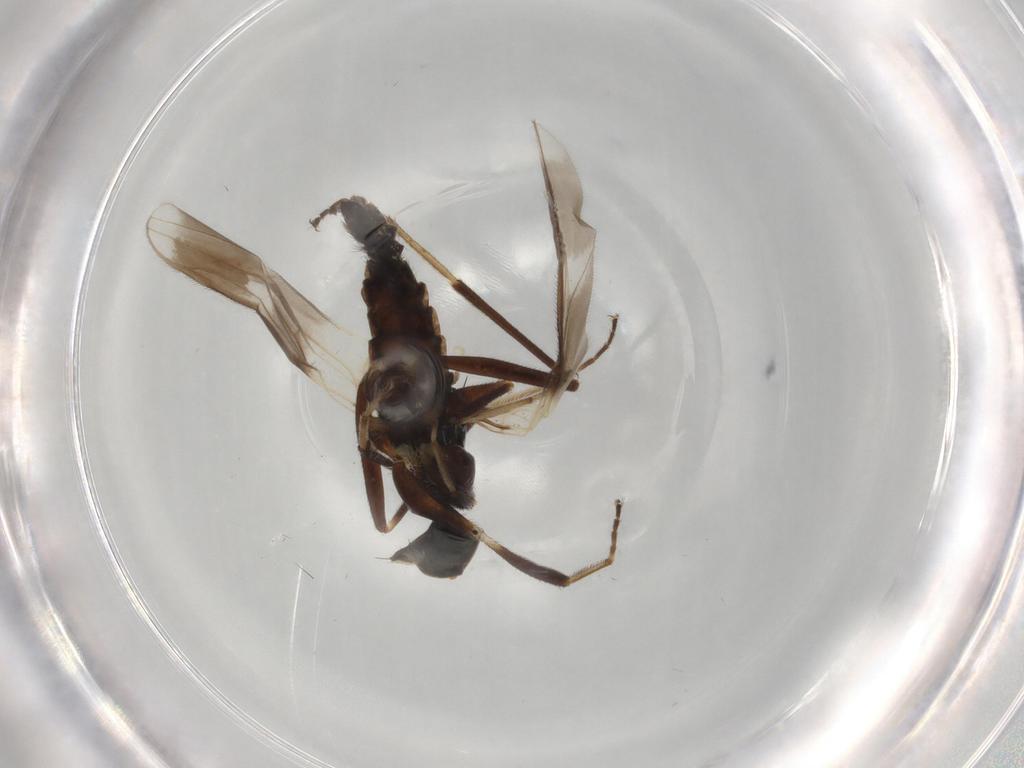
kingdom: Animalia
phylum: Arthropoda
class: Insecta
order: Diptera
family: Hybotidae
